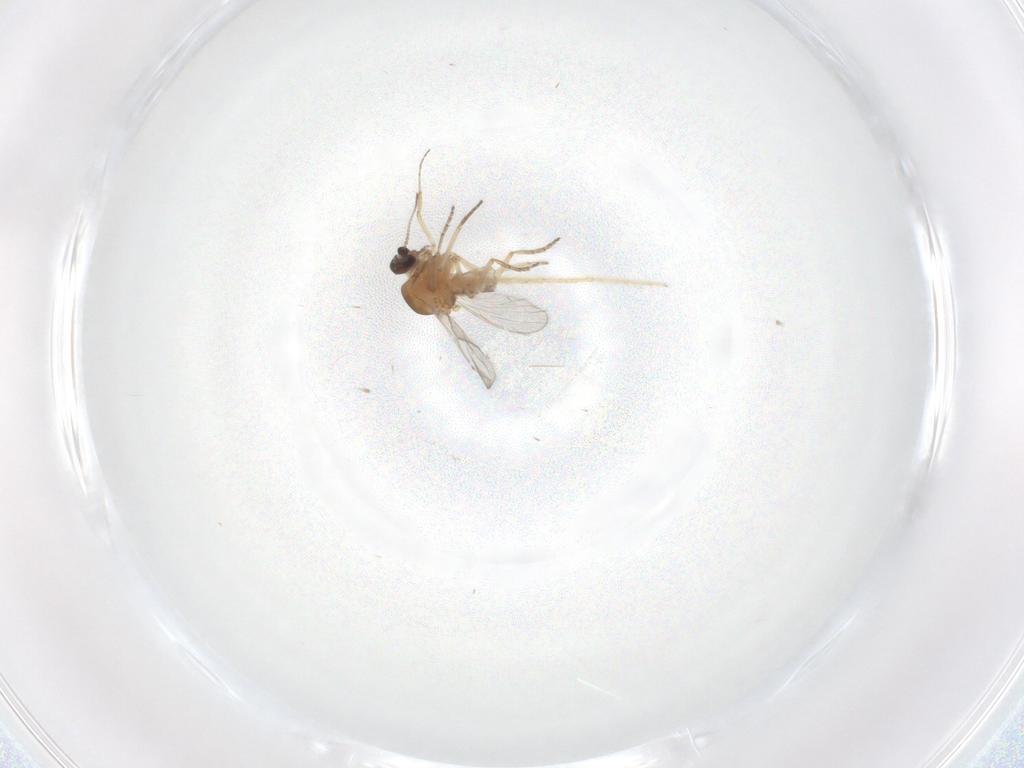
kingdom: Animalia
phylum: Arthropoda
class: Insecta
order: Diptera
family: Ceratopogonidae
